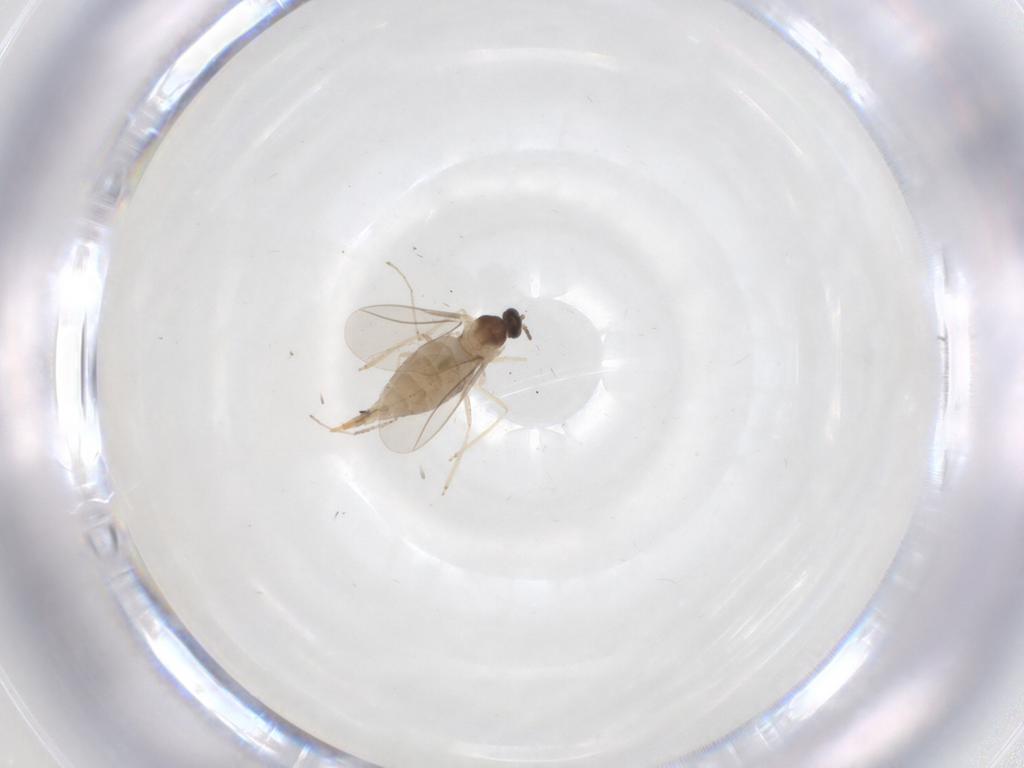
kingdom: Animalia
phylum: Arthropoda
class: Insecta
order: Diptera
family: Phoridae
